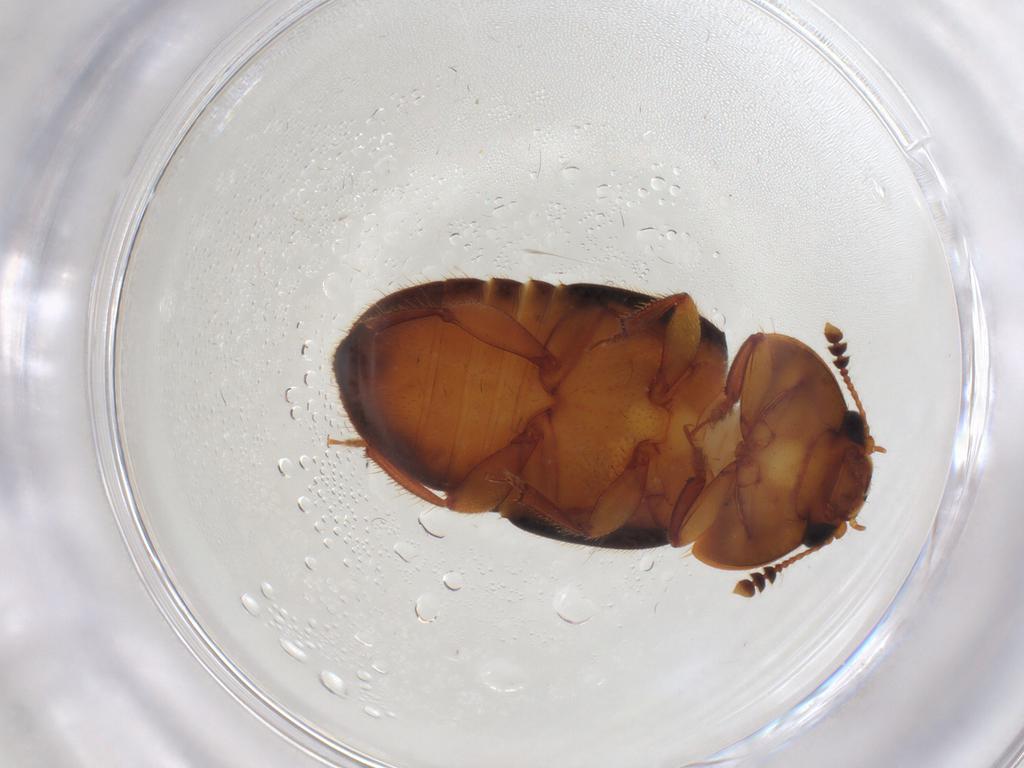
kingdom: Animalia
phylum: Arthropoda
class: Insecta
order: Coleoptera
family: Nitidulidae
